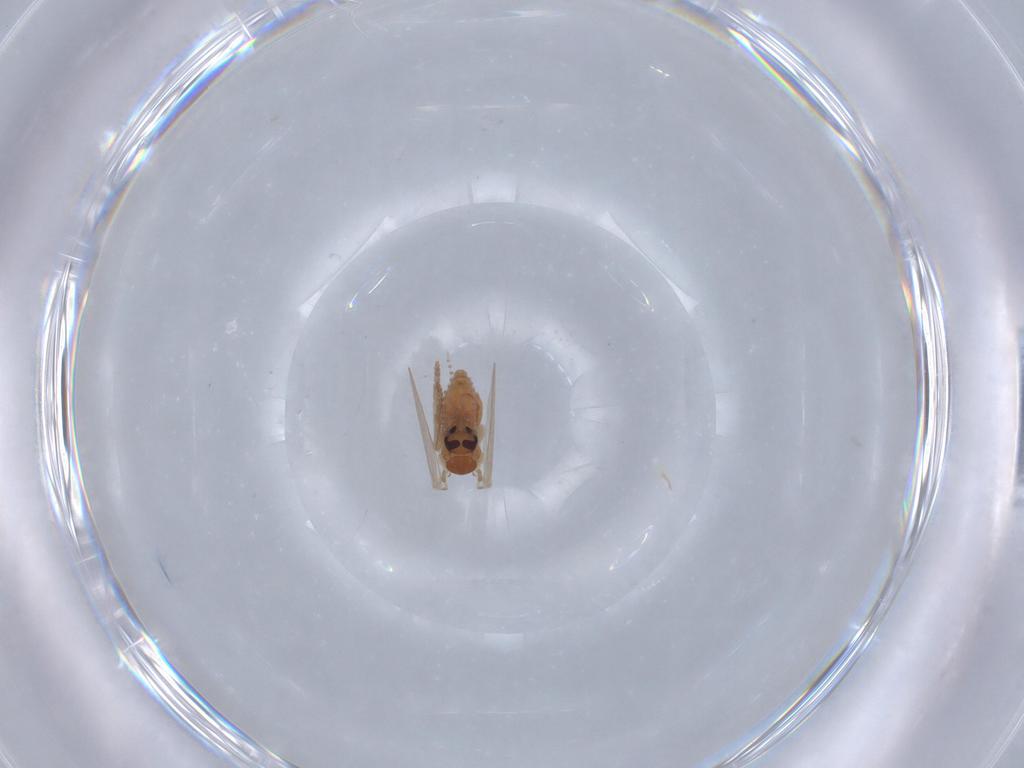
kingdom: Animalia
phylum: Arthropoda
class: Insecta
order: Diptera
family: Psychodidae
